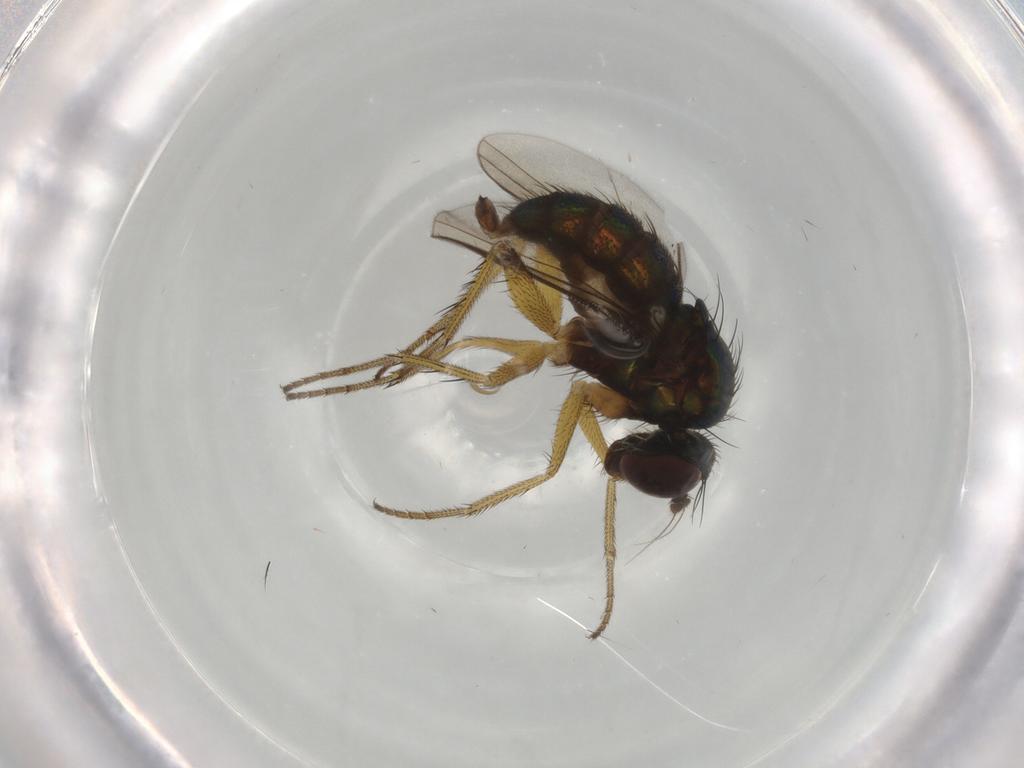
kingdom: Animalia
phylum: Arthropoda
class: Insecta
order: Diptera
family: Dolichopodidae
